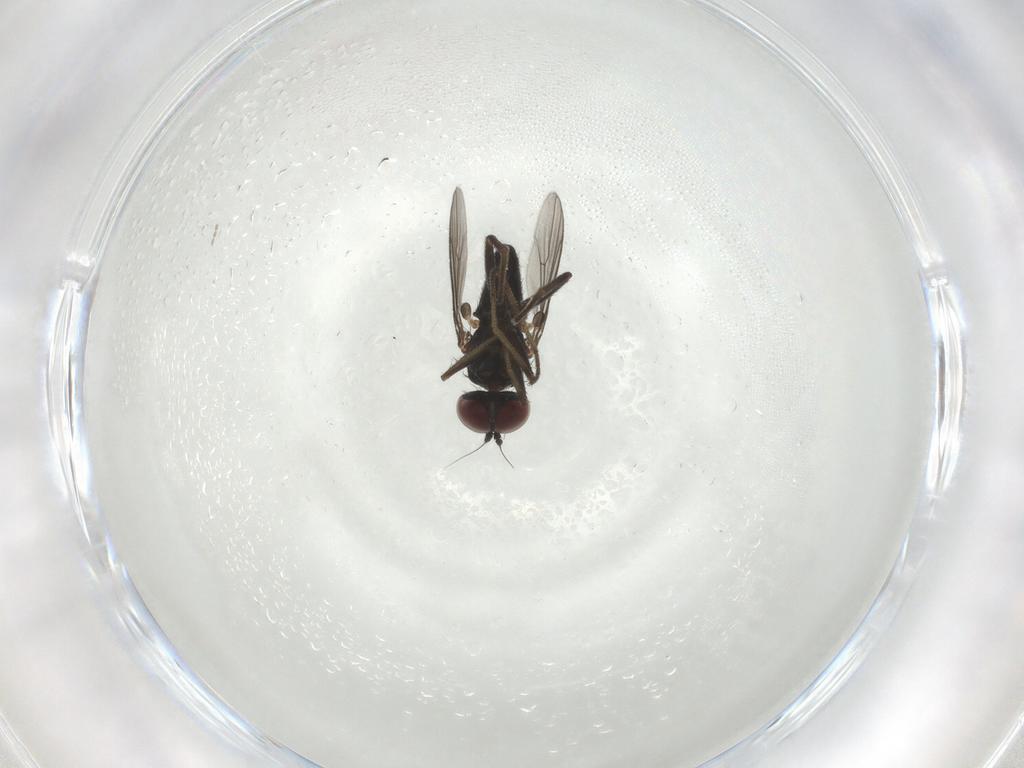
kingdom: Animalia
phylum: Arthropoda
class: Insecta
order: Diptera
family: Dolichopodidae
